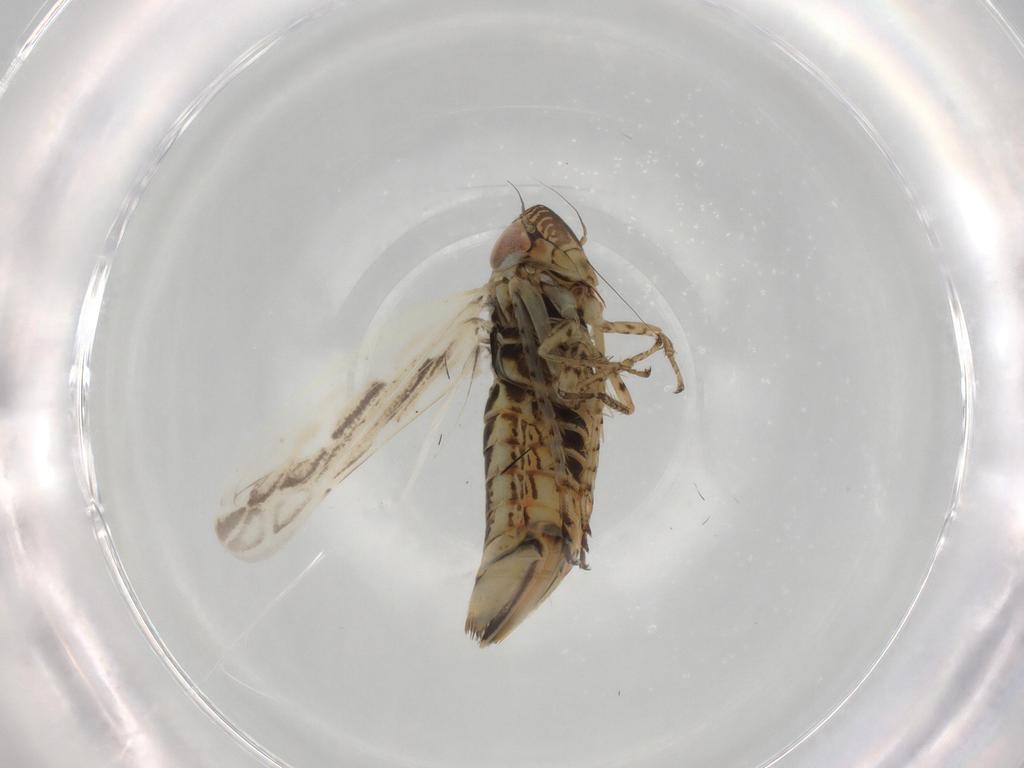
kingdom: Animalia
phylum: Arthropoda
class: Insecta
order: Hemiptera
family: Cicadellidae
